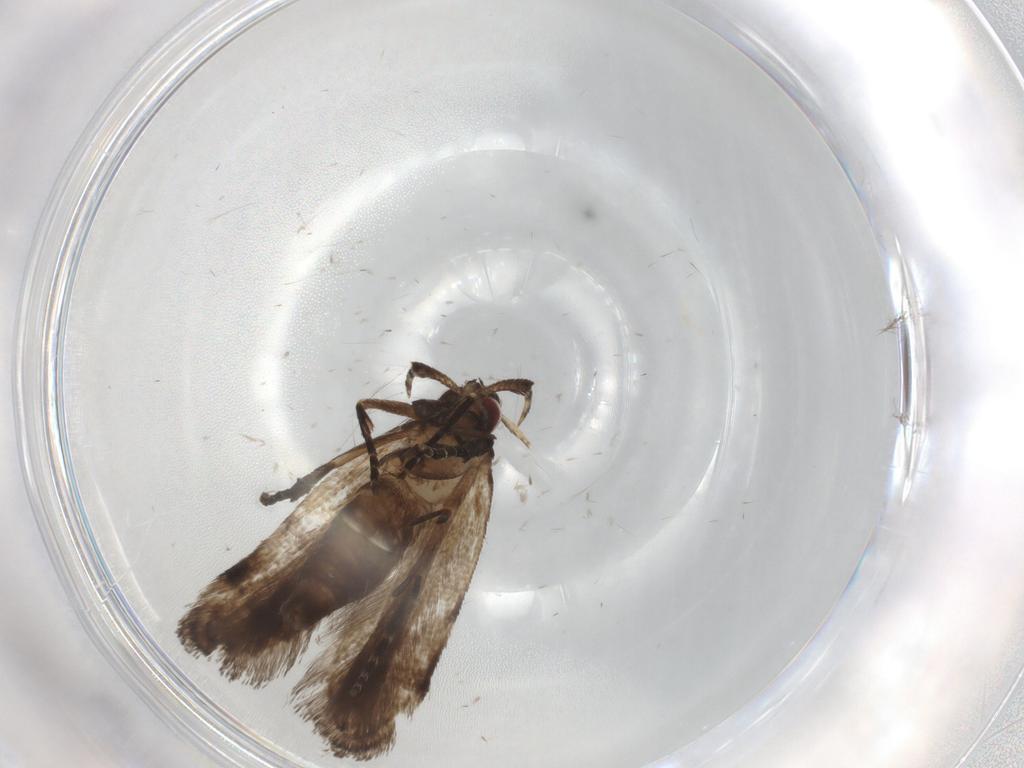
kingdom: Animalia
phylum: Arthropoda
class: Insecta
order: Lepidoptera
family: Gelechiidae
